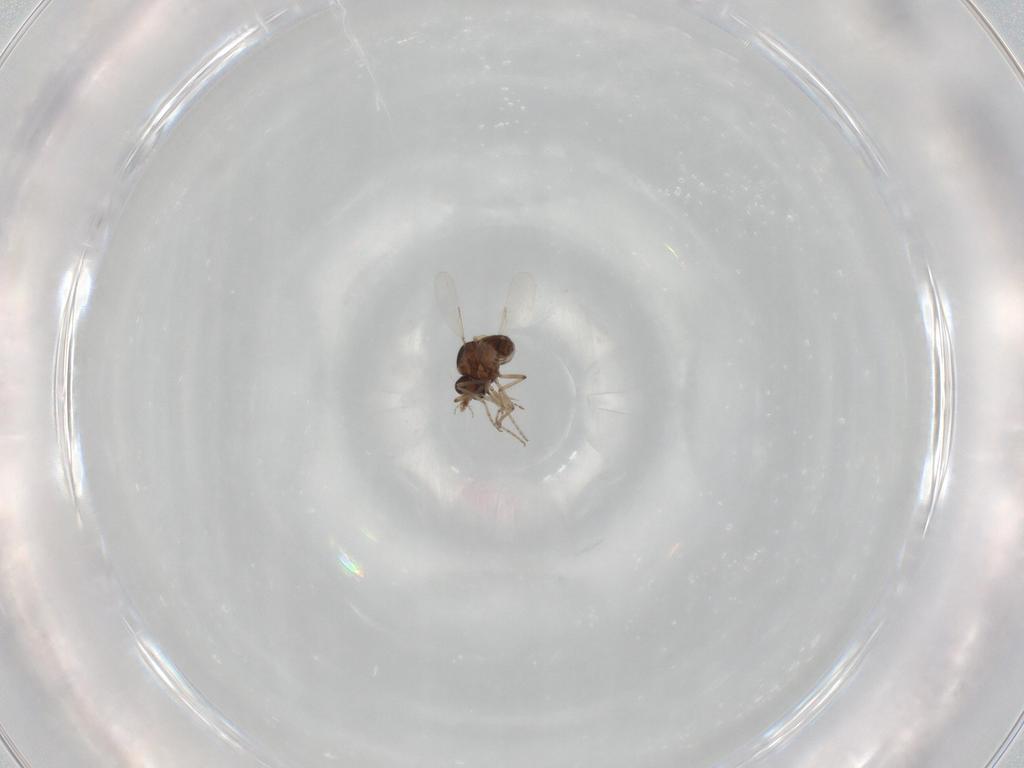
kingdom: Animalia
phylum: Arthropoda
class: Insecta
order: Diptera
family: Ceratopogonidae
